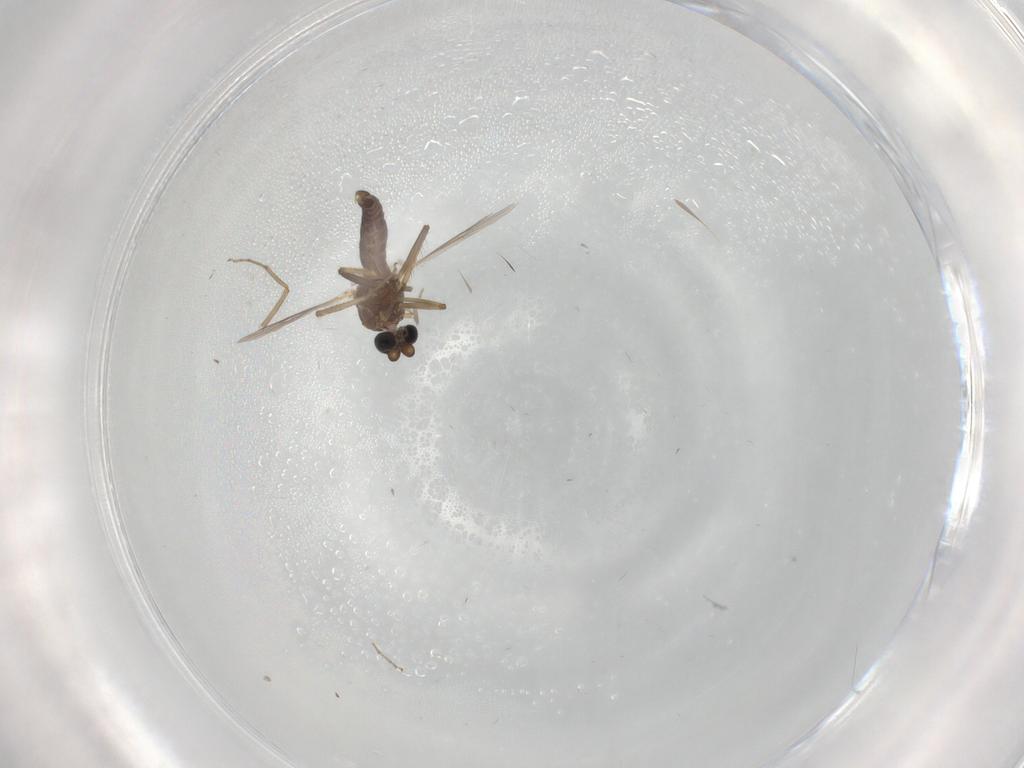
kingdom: Animalia
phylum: Arthropoda
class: Insecta
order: Diptera
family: Ceratopogonidae
